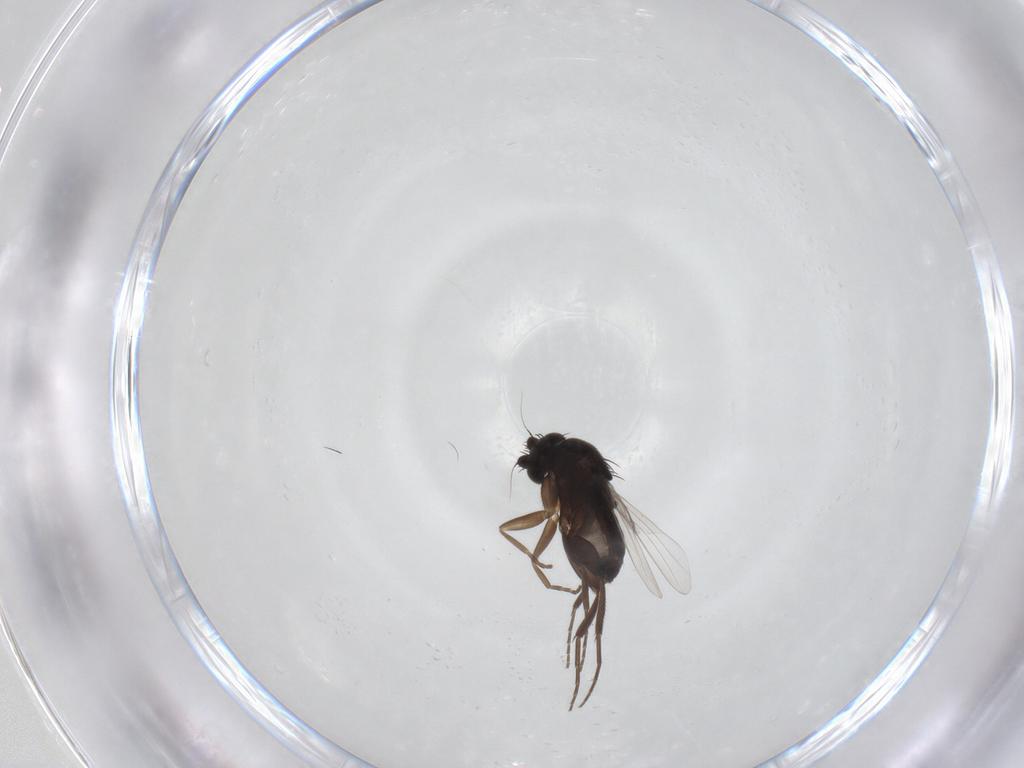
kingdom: Animalia
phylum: Arthropoda
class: Insecta
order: Diptera
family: Phoridae
